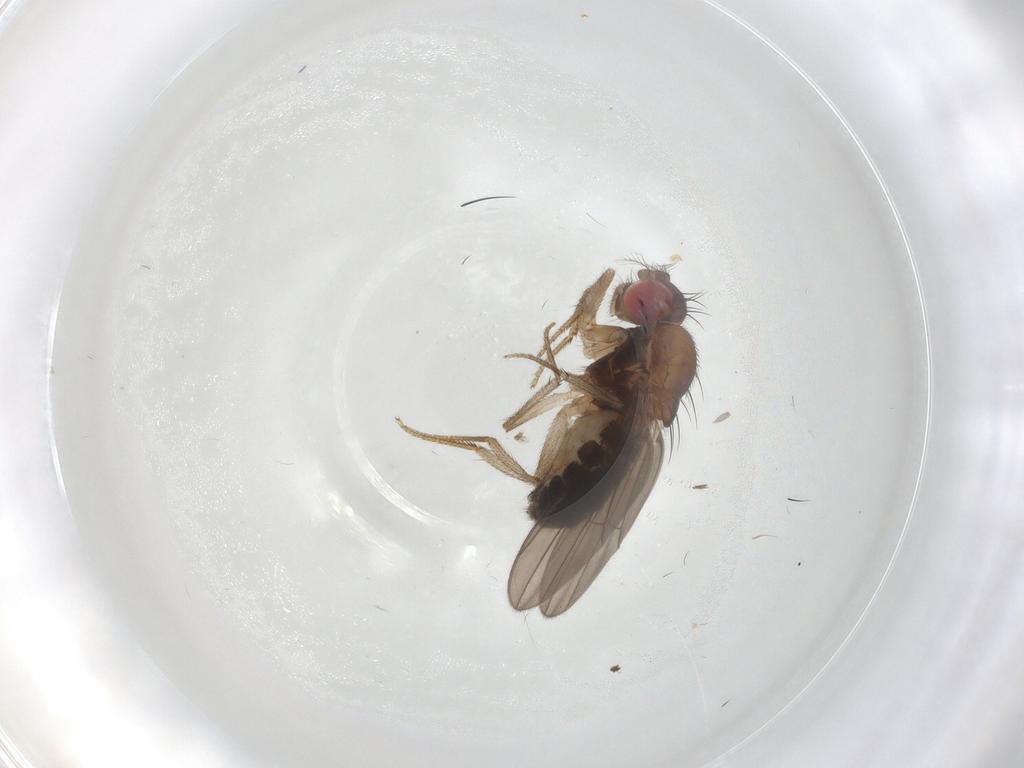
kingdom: Animalia
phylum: Arthropoda
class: Insecta
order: Diptera
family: Drosophilidae
